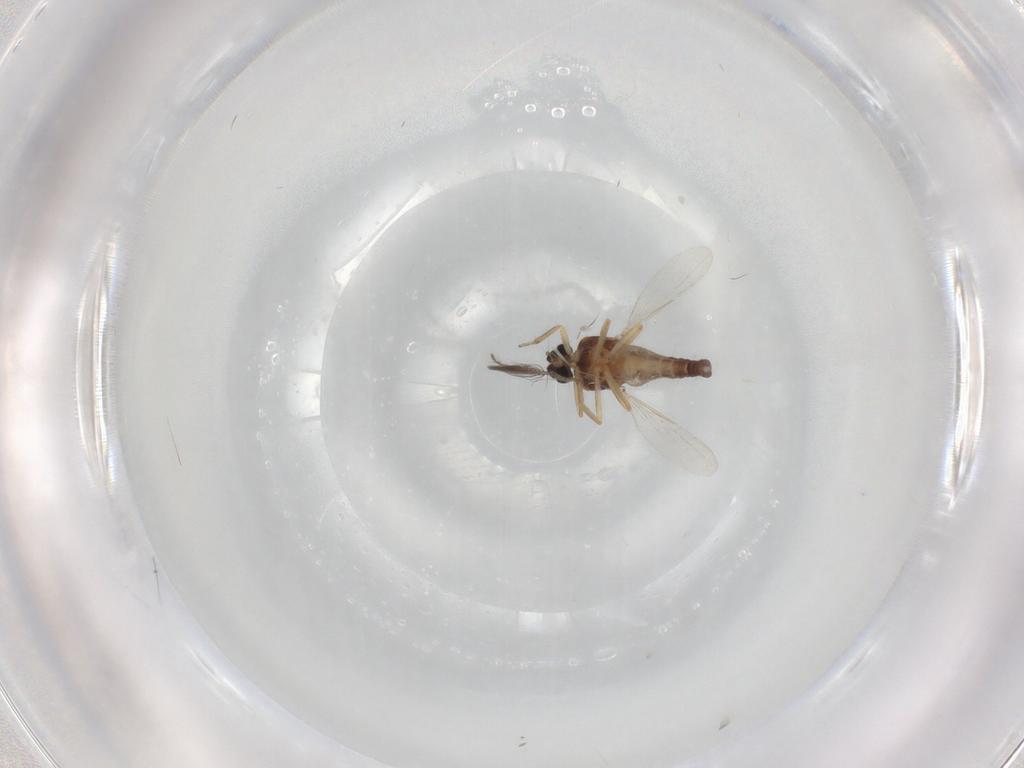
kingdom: Animalia
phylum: Arthropoda
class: Insecta
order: Diptera
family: Ceratopogonidae
